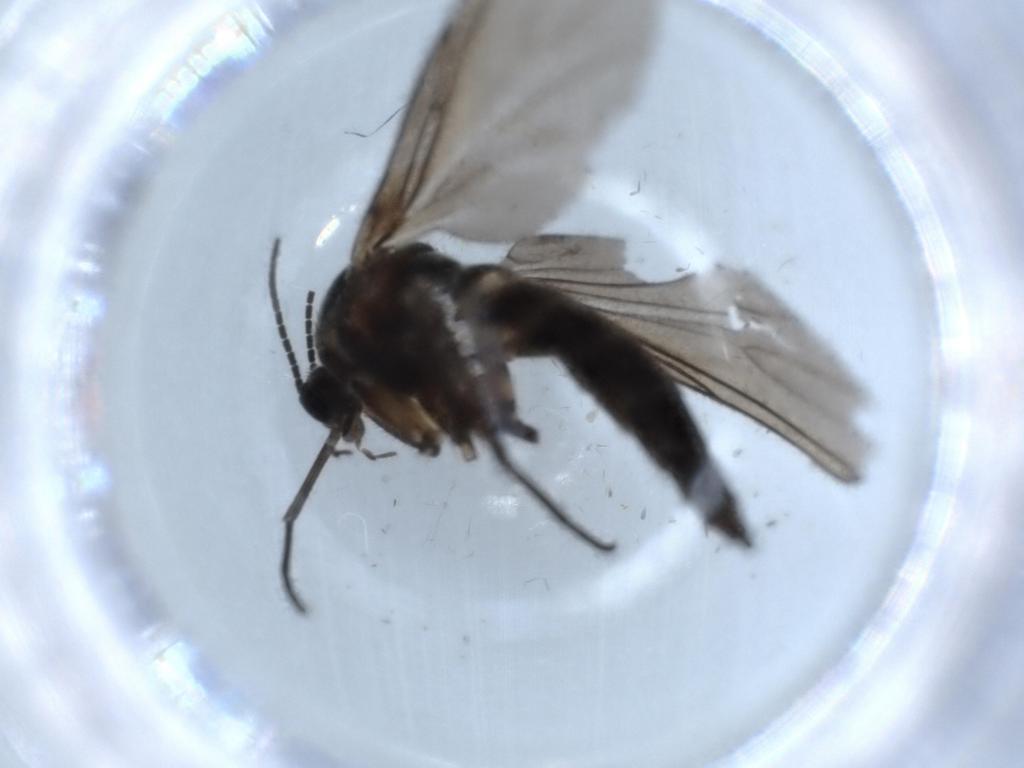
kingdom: Animalia
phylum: Arthropoda
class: Insecta
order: Diptera
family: Sciaridae
